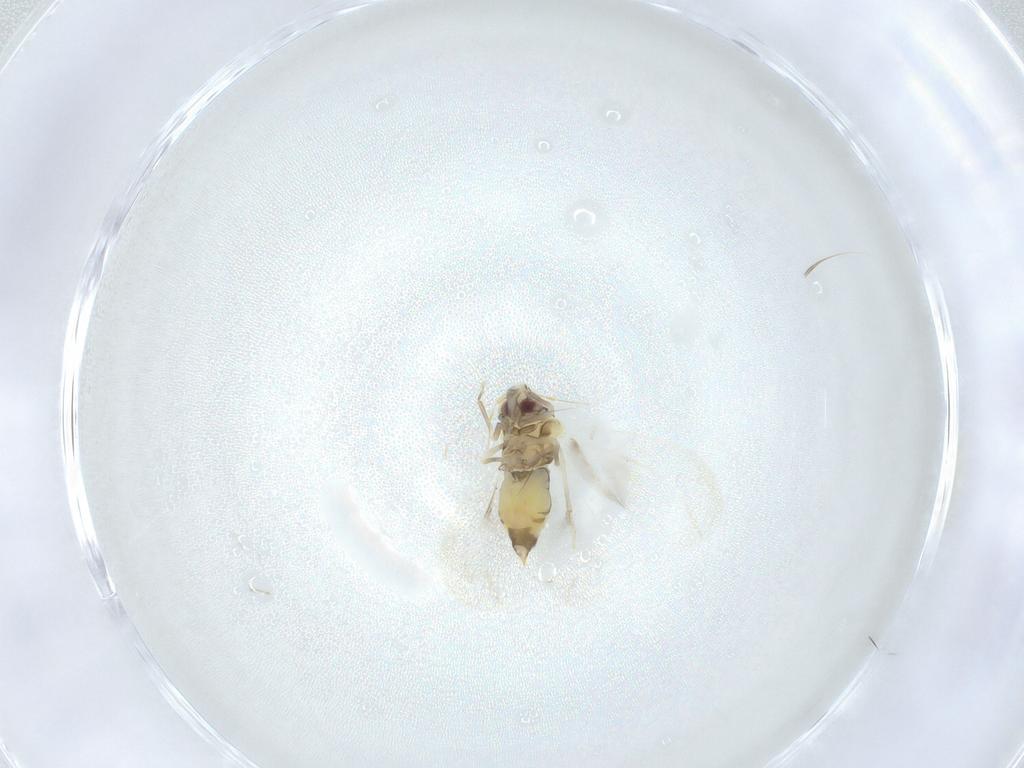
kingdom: Animalia
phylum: Arthropoda
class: Insecta
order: Hemiptera
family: Aleyrodidae
